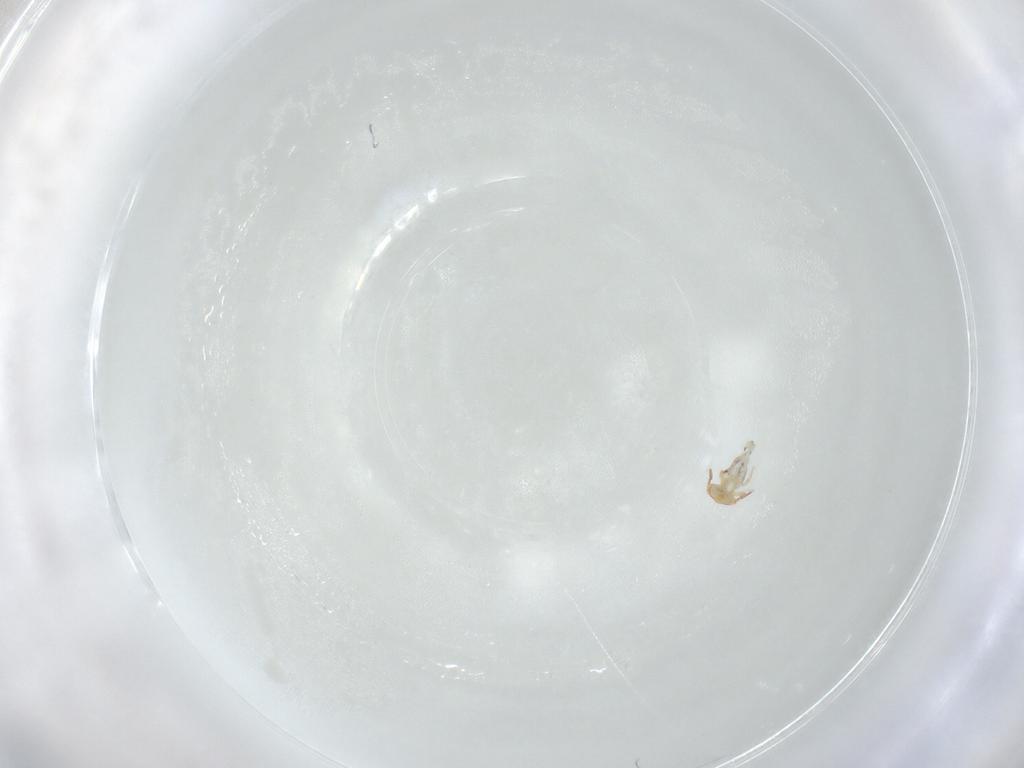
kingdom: Animalia
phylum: Arthropoda
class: Collembola
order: Symphypleona
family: Bourletiellidae
